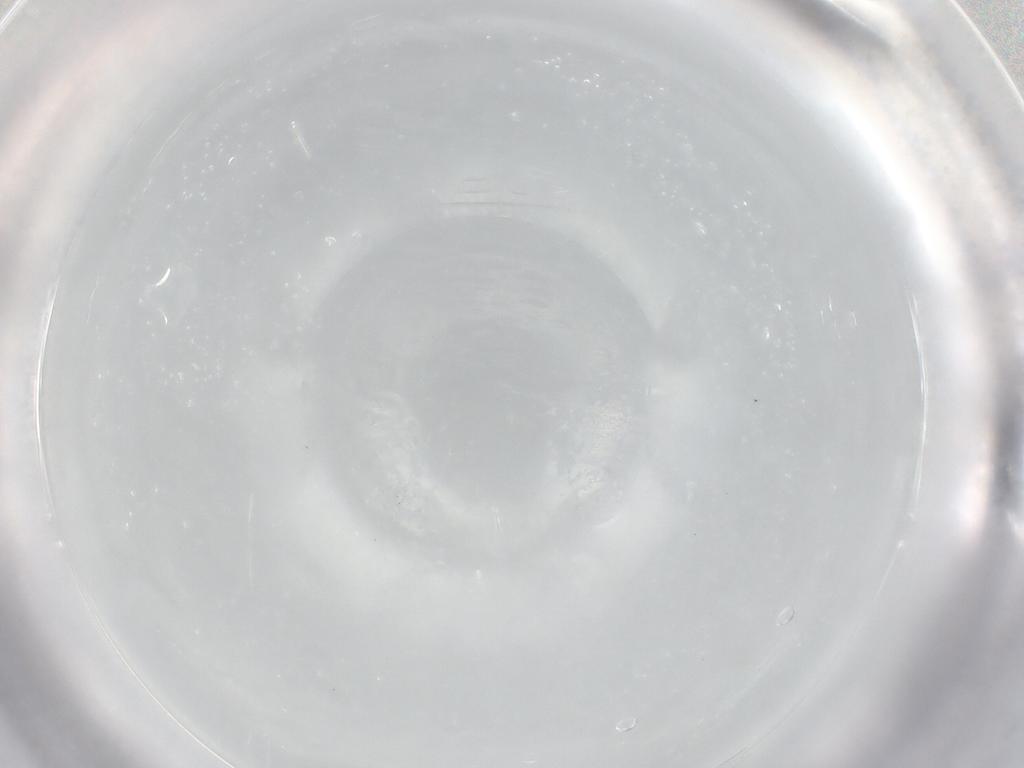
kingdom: Animalia
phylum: Arthropoda
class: Arachnida
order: Trombidiformes
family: Eupodidae
